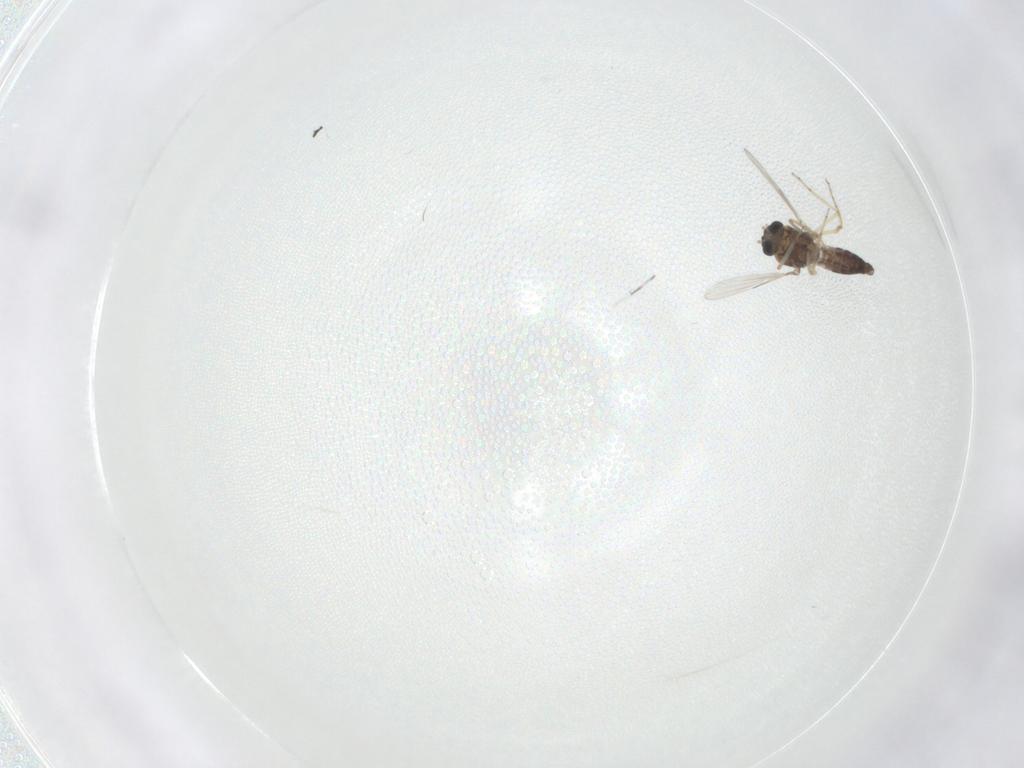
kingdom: Animalia
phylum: Arthropoda
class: Insecta
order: Diptera
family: Ceratopogonidae
